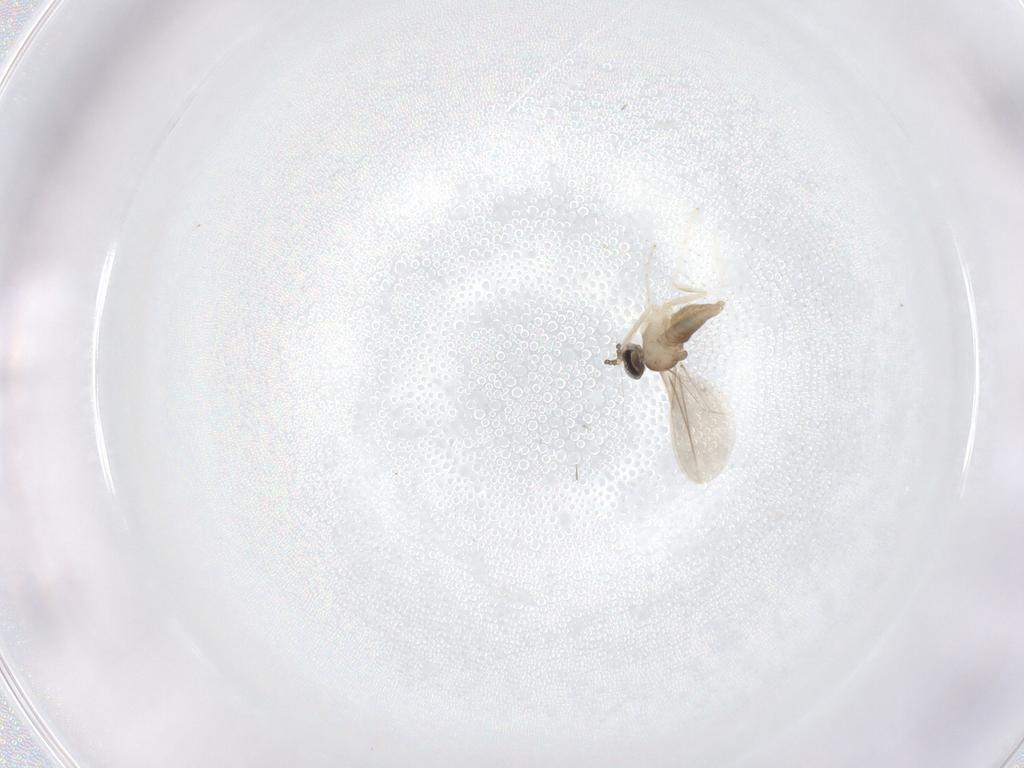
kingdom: Animalia
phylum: Arthropoda
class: Insecta
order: Diptera
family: Cecidomyiidae
